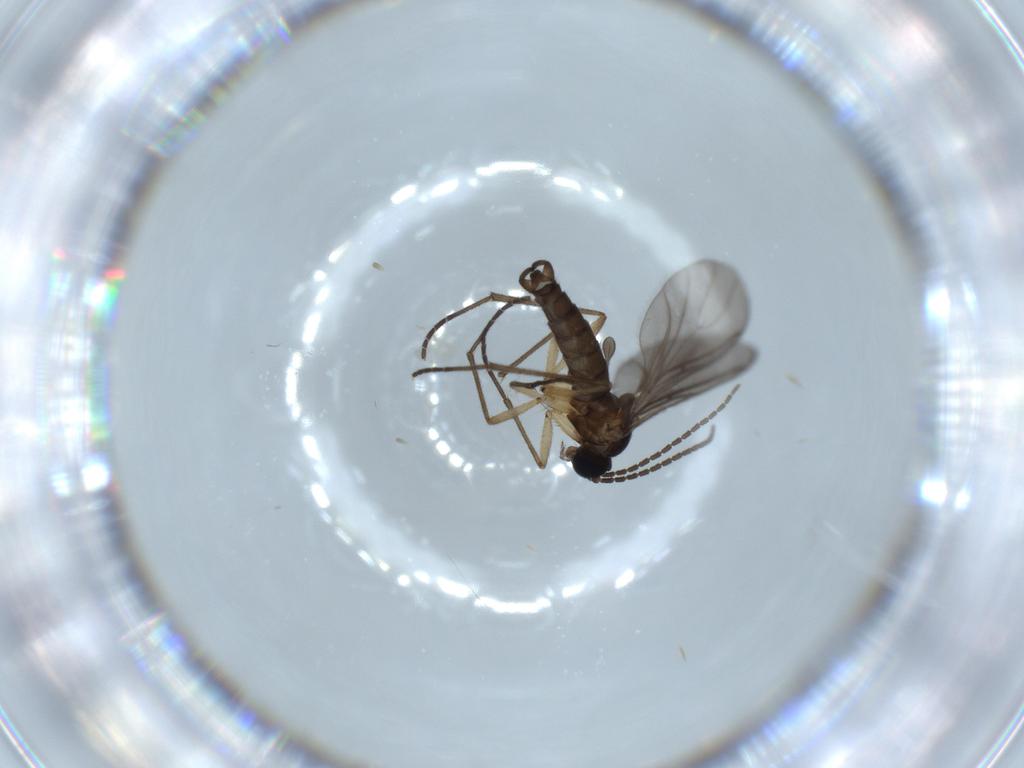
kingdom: Animalia
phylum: Arthropoda
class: Insecta
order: Diptera
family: Sciaridae
